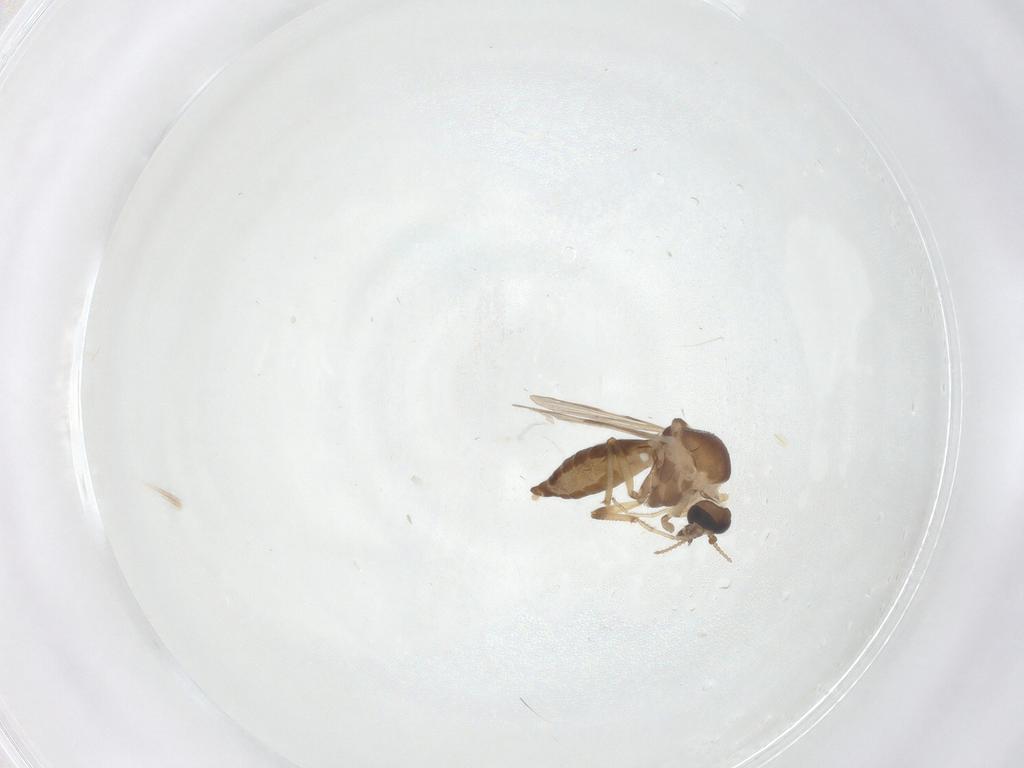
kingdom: Animalia
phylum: Arthropoda
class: Insecta
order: Diptera
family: Ceratopogonidae
